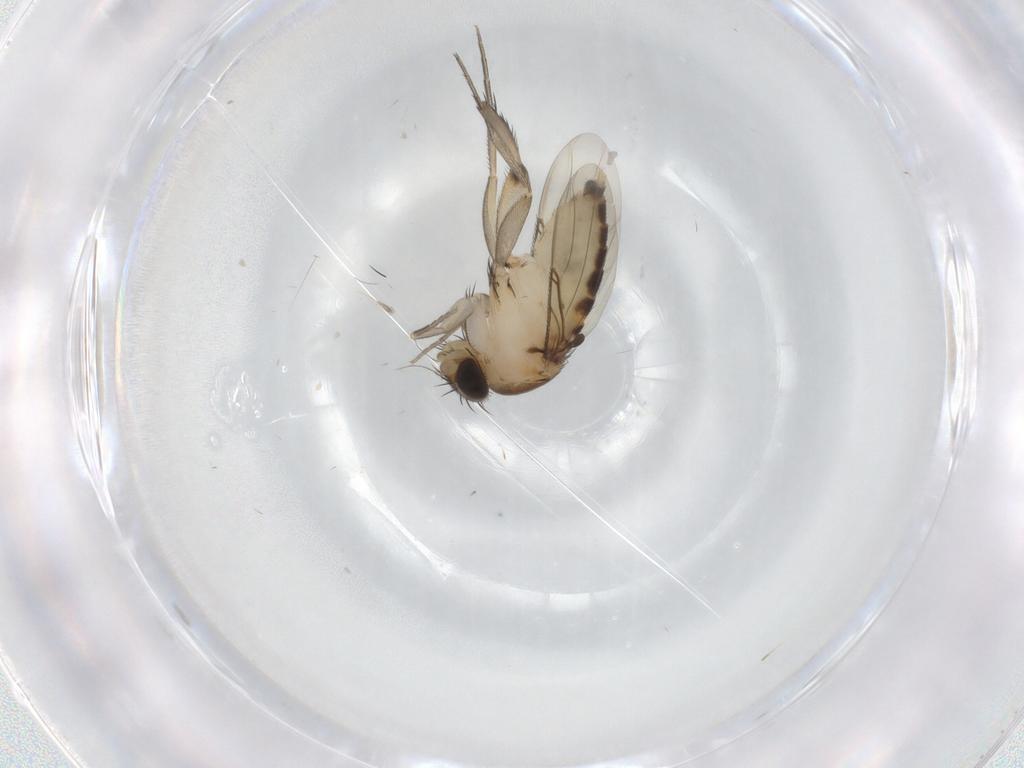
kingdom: Animalia
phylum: Arthropoda
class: Insecta
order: Diptera
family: Phoridae
